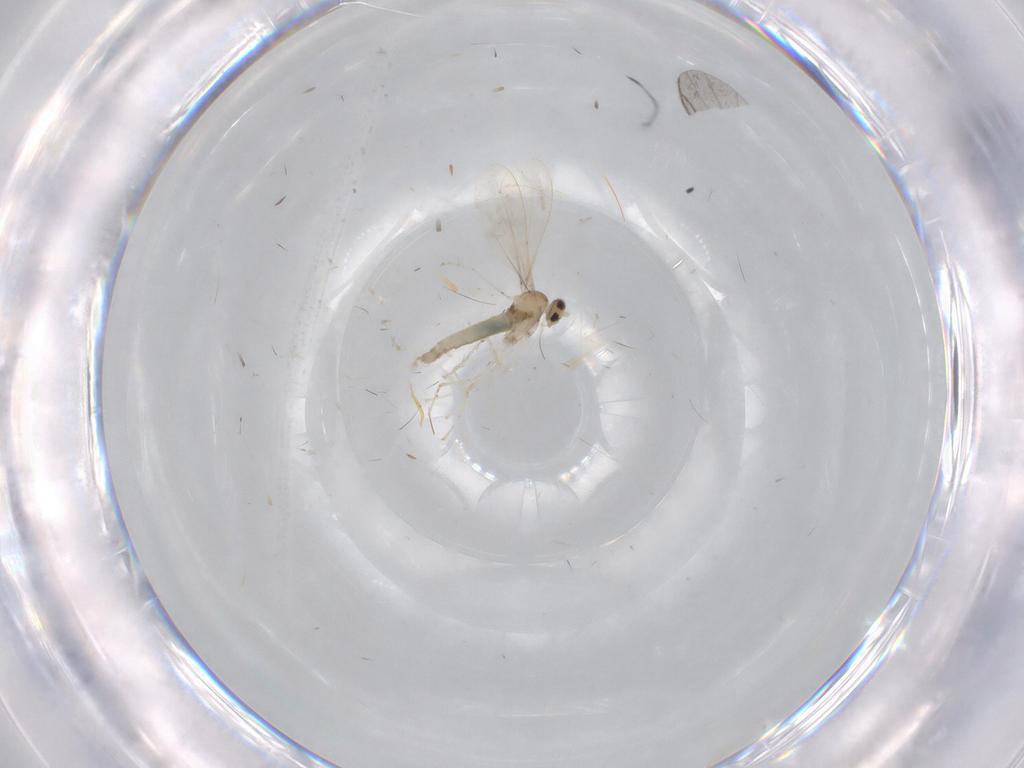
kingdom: Animalia
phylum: Arthropoda
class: Insecta
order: Diptera
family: Cecidomyiidae
